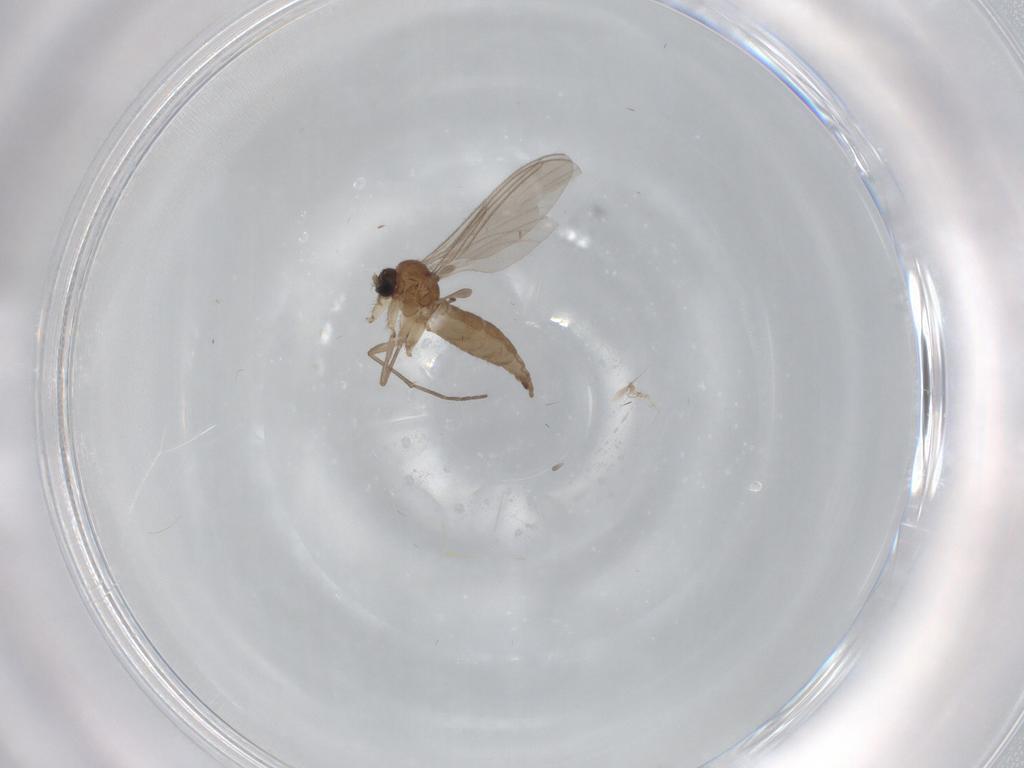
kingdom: Animalia
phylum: Arthropoda
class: Insecta
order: Diptera
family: Sciaridae
